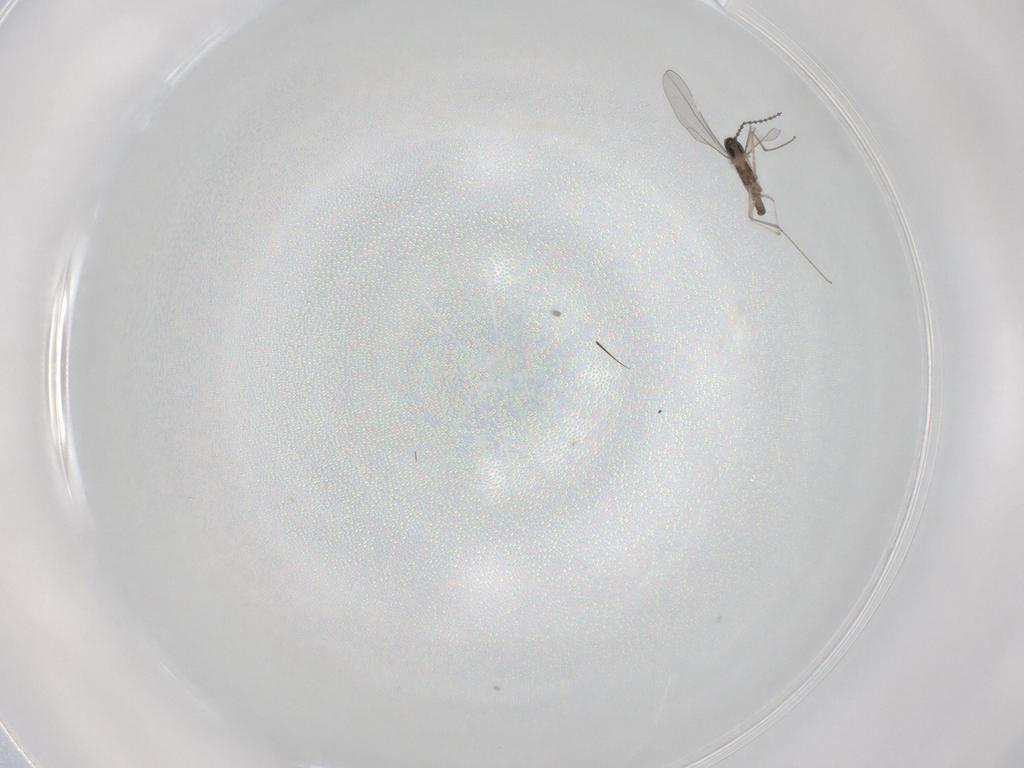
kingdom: Animalia
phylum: Arthropoda
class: Insecta
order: Diptera
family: Cecidomyiidae
